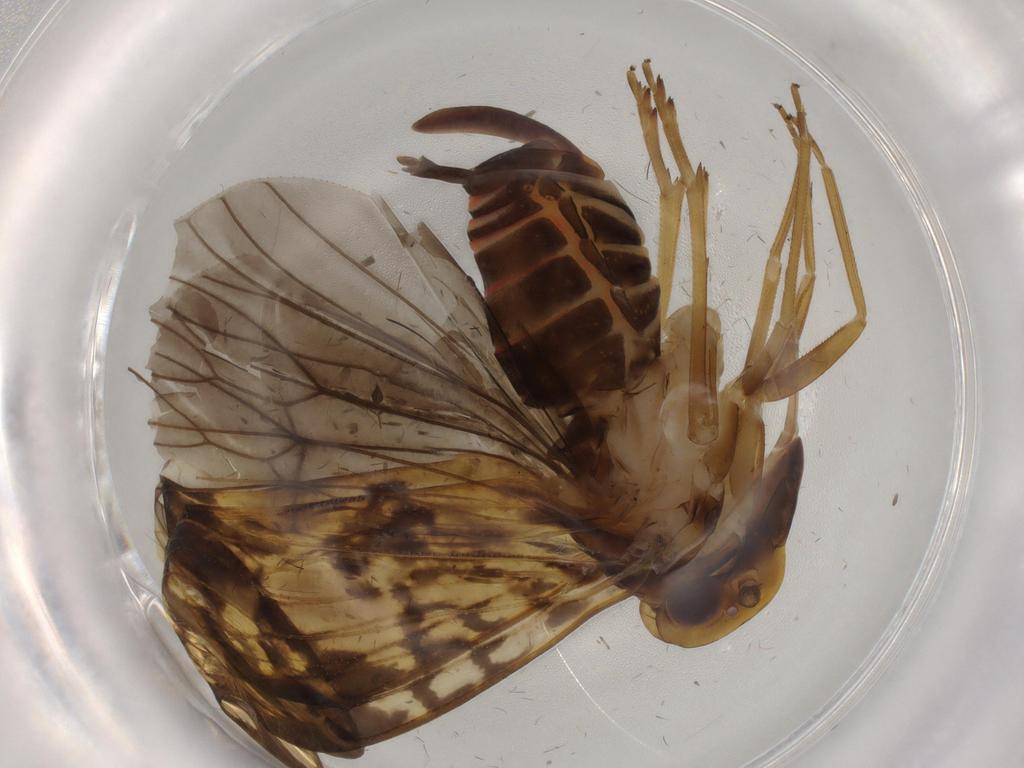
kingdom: Animalia
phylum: Arthropoda
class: Insecta
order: Hemiptera
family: Cixiidae
